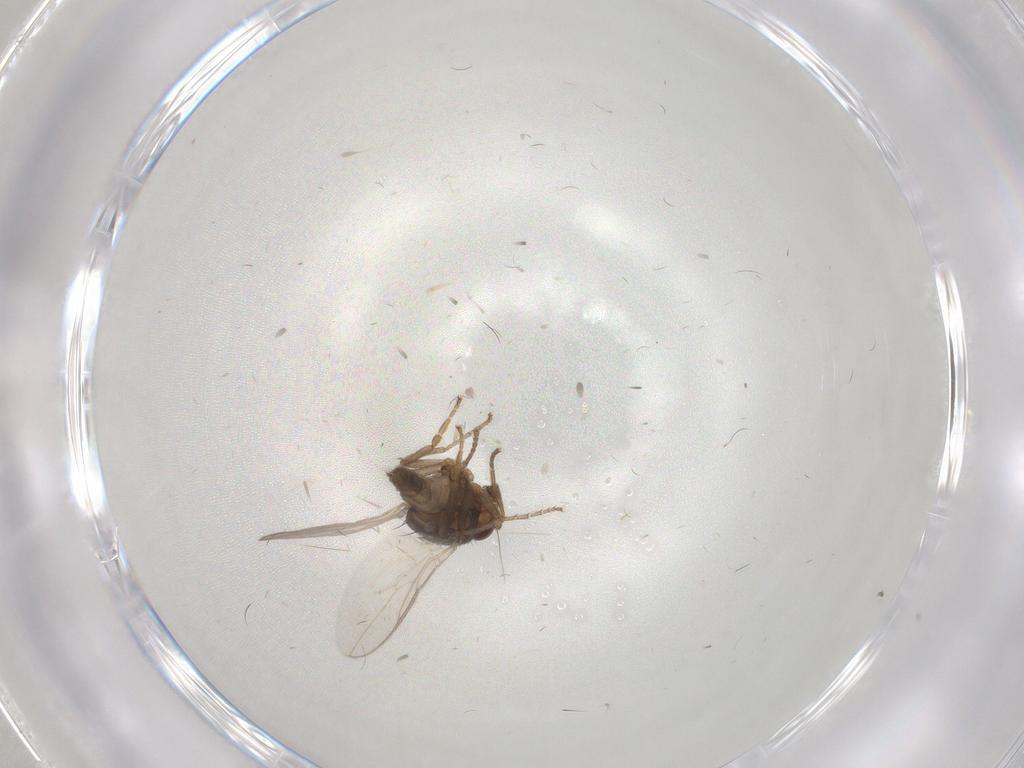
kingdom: Animalia
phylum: Arthropoda
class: Insecta
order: Diptera
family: Sphaeroceridae
